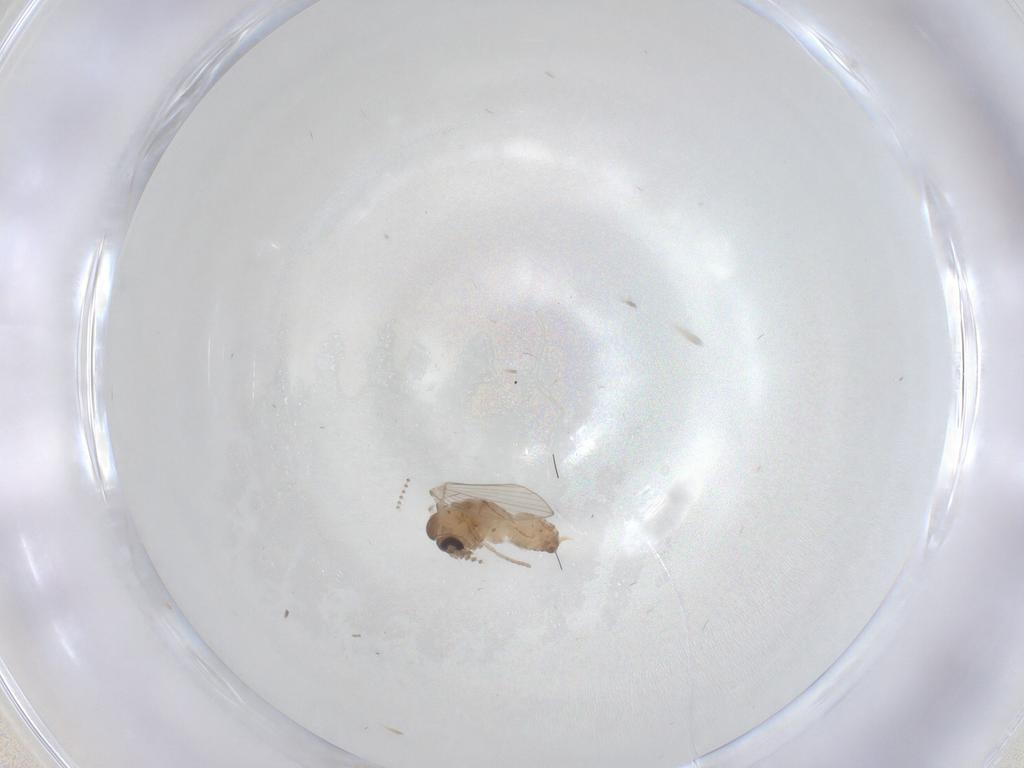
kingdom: Animalia
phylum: Arthropoda
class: Insecta
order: Diptera
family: Psychodidae
